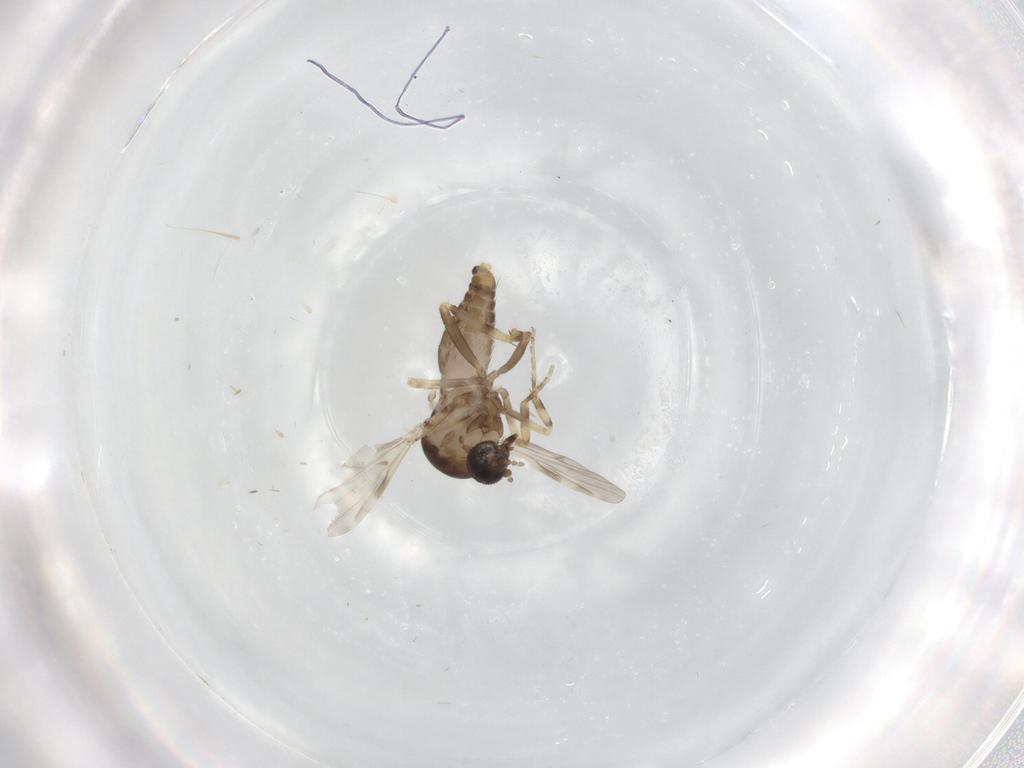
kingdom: Animalia
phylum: Arthropoda
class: Insecta
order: Diptera
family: Ceratopogonidae
